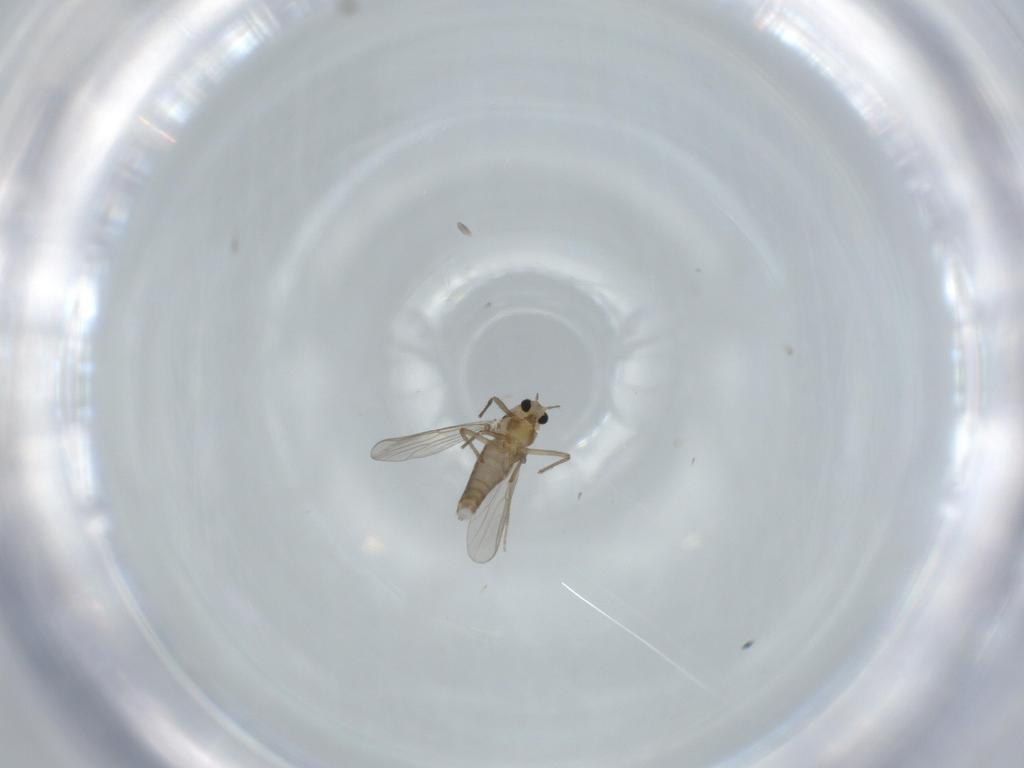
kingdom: Animalia
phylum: Arthropoda
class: Insecta
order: Diptera
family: Chironomidae
